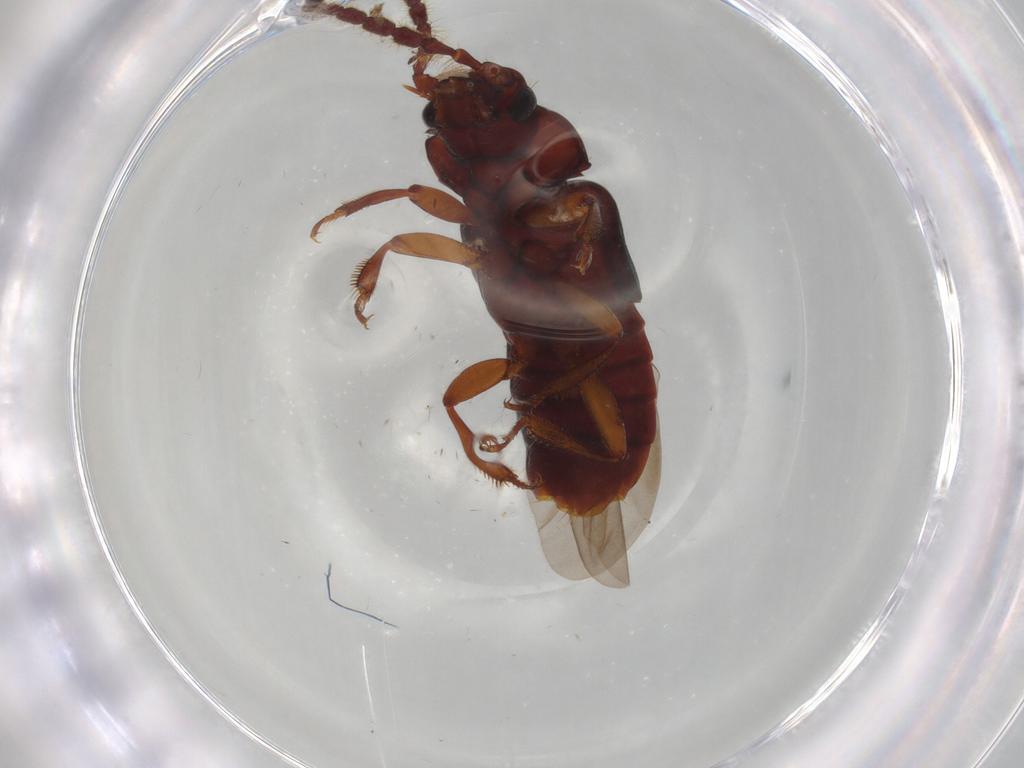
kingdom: Animalia
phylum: Arthropoda
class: Insecta
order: Coleoptera
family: Staphylinidae
